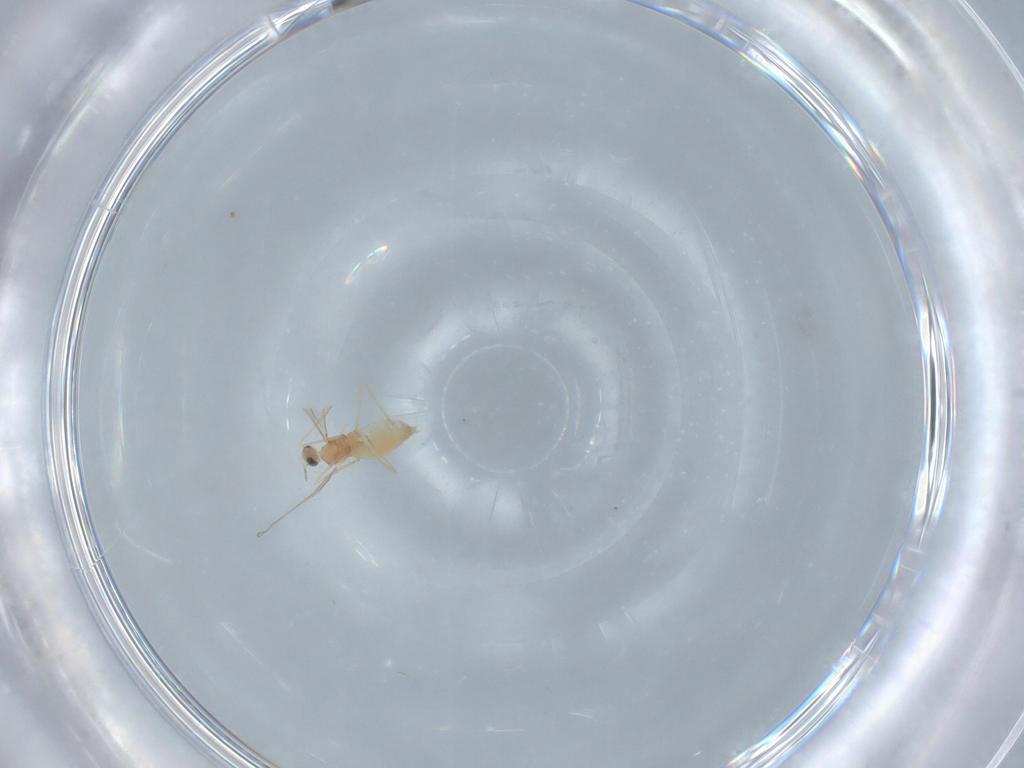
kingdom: Animalia
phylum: Arthropoda
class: Insecta
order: Diptera
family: Cecidomyiidae
